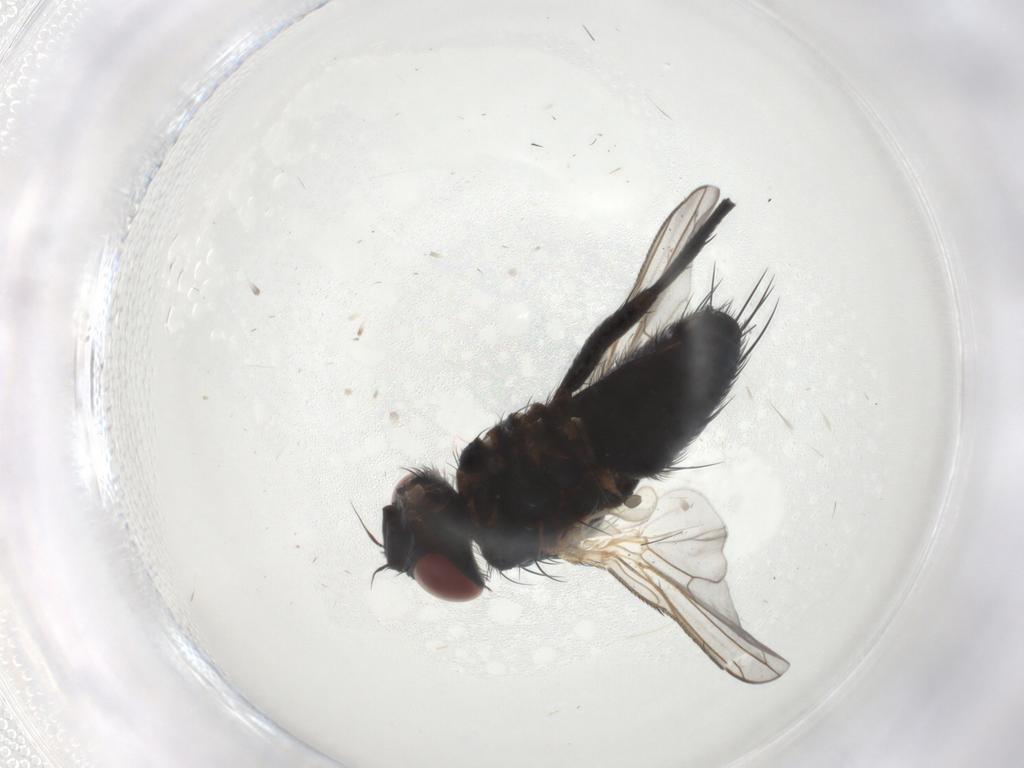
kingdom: Animalia
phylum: Arthropoda
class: Insecta
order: Diptera
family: Tachinidae
